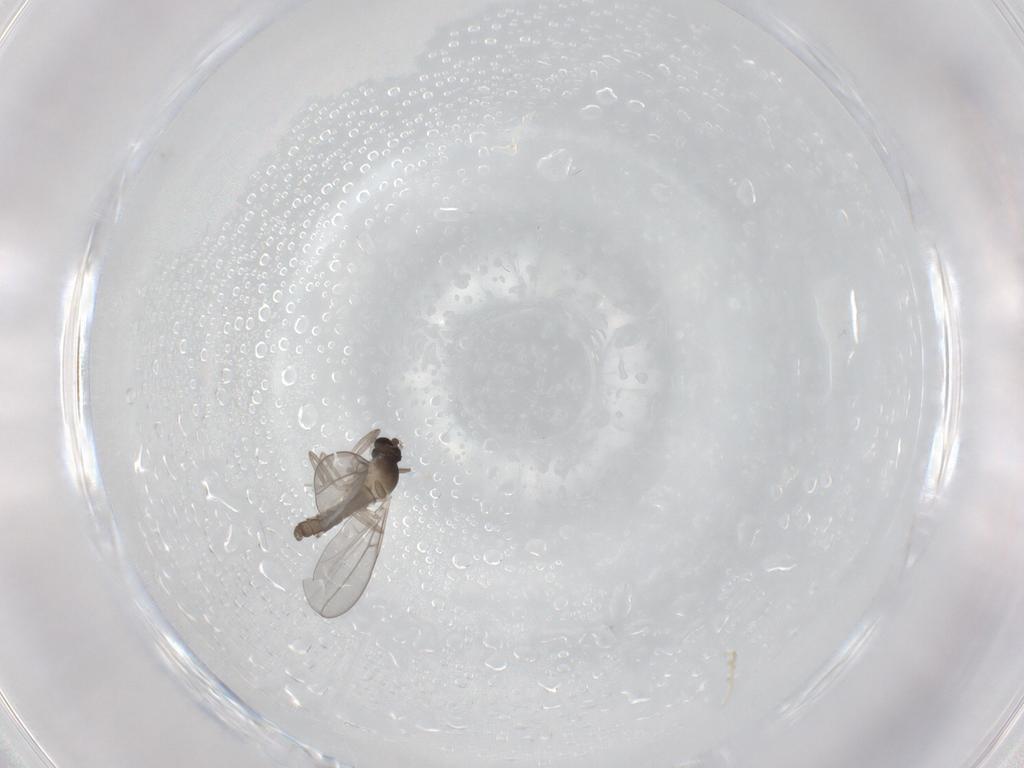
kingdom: Animalia
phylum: Arthropoda
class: Insecta
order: Diptera
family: Cecidomyiidae
